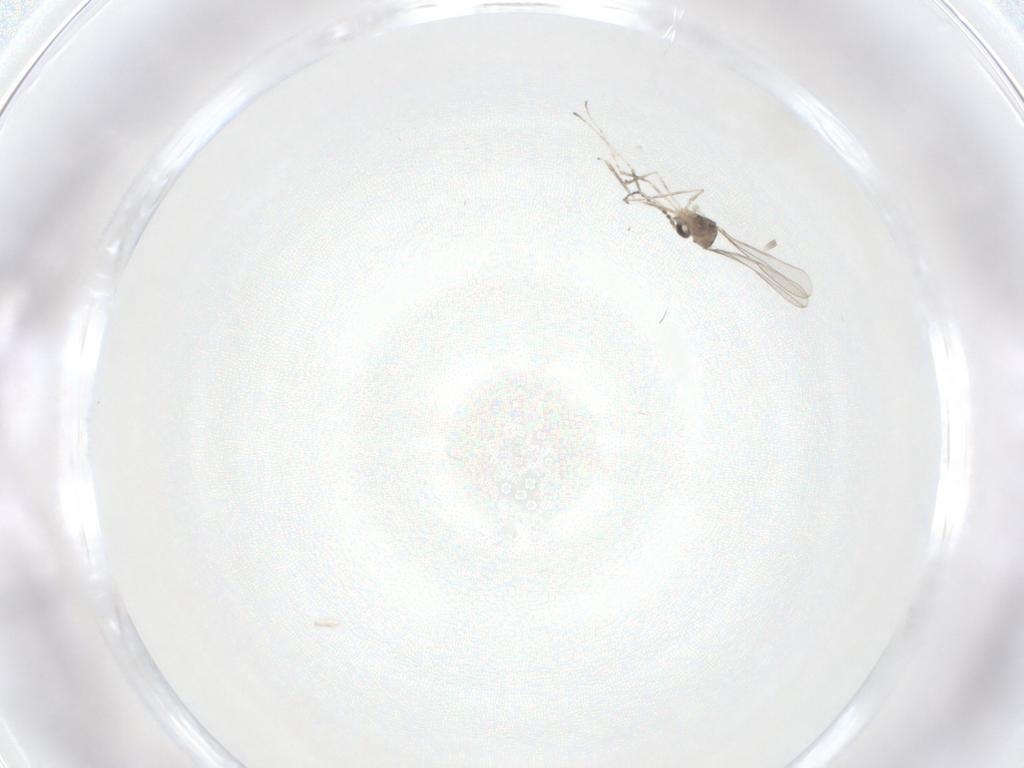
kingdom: Animalia
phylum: Arthropoda
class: Insecta
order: Diptera
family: Cecidomyiidae
